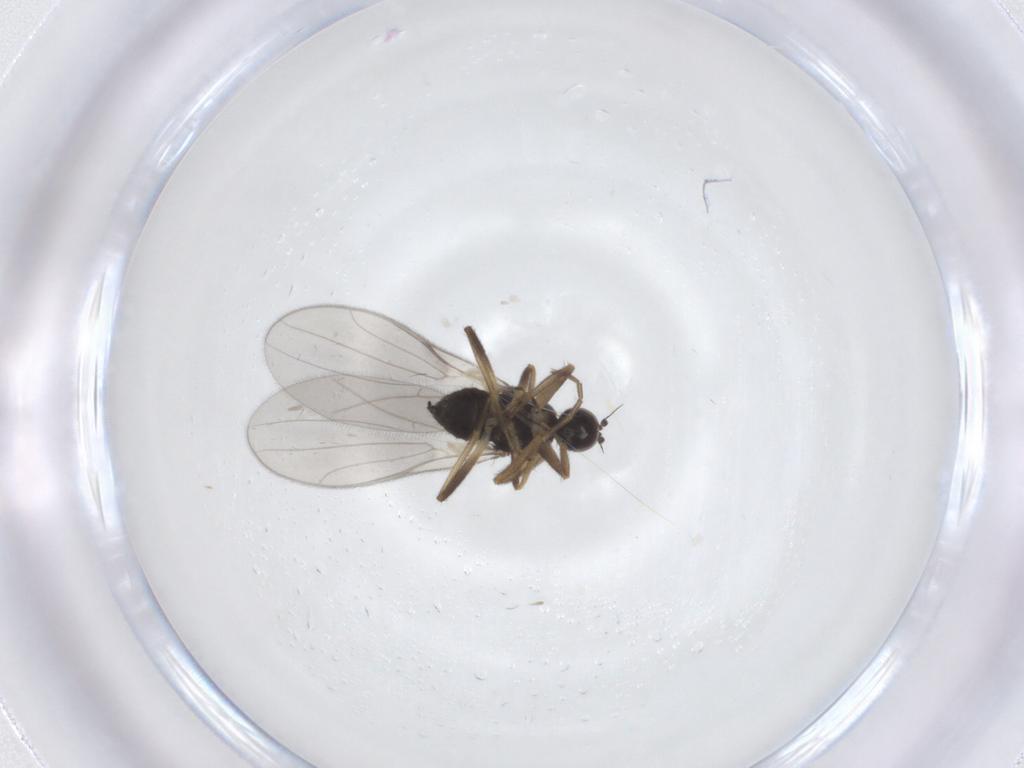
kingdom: Animalia
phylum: Arthropoda
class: Insecta
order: Diptera
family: Hybotidae
